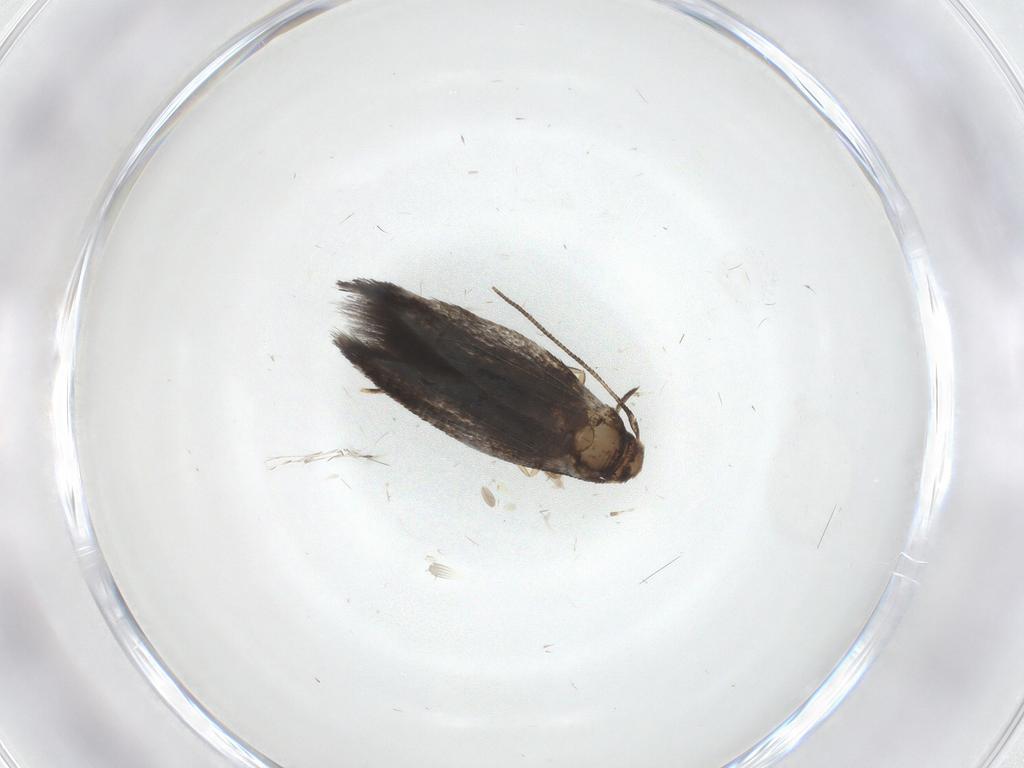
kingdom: Animalia
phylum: Arthropoda
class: Insecta
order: Lepidoptera
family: Gelechiidae
